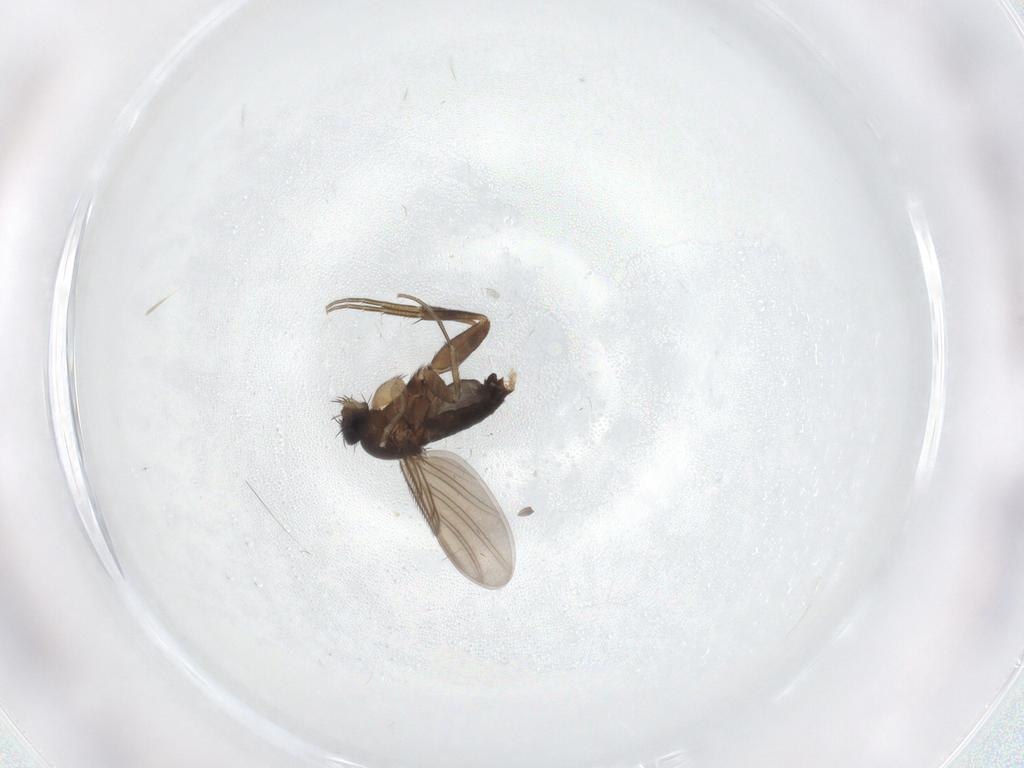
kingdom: Animalia
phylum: Arthropoda
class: Insecta
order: Diptera
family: Phoridae
